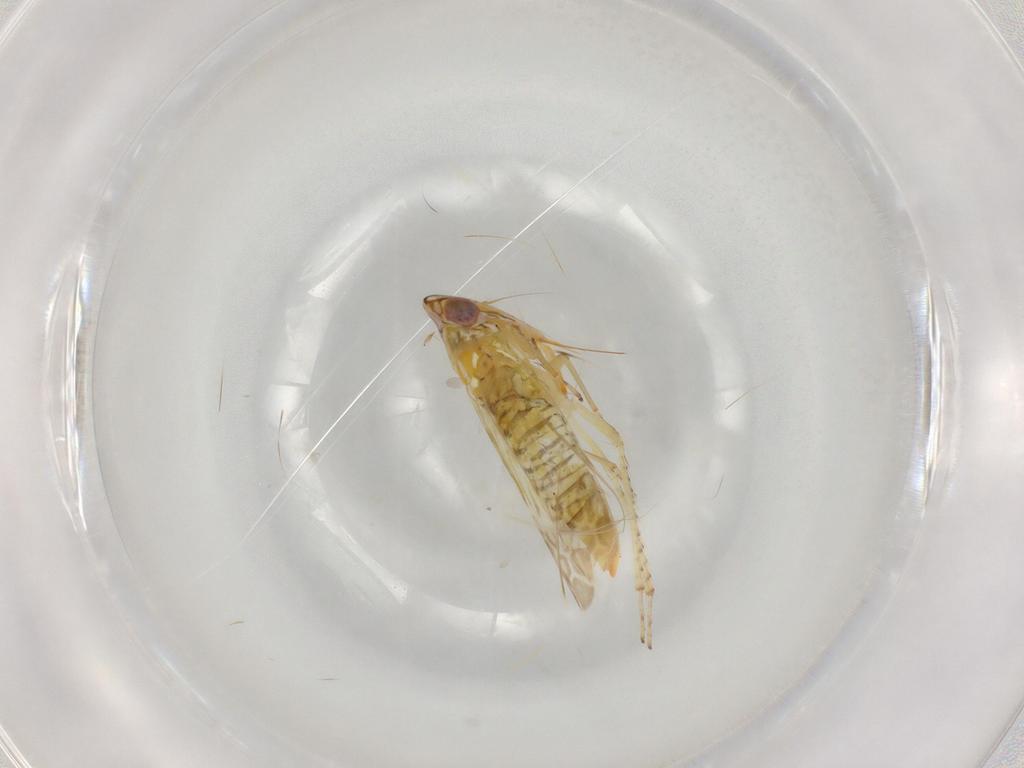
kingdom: Animalia
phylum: Arthropoda
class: Insecta
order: Hemiptera
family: Cicadellidae
